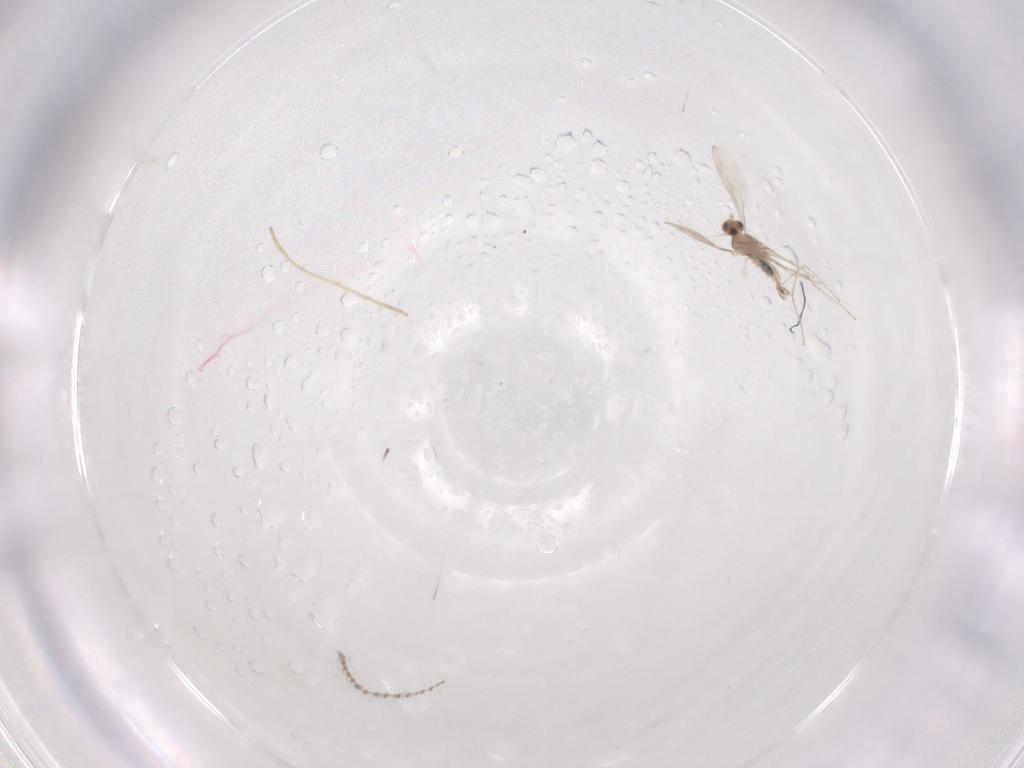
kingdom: Animalia
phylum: Arthropoda
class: Insecta
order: Diptera
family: Cecidomyiidae
